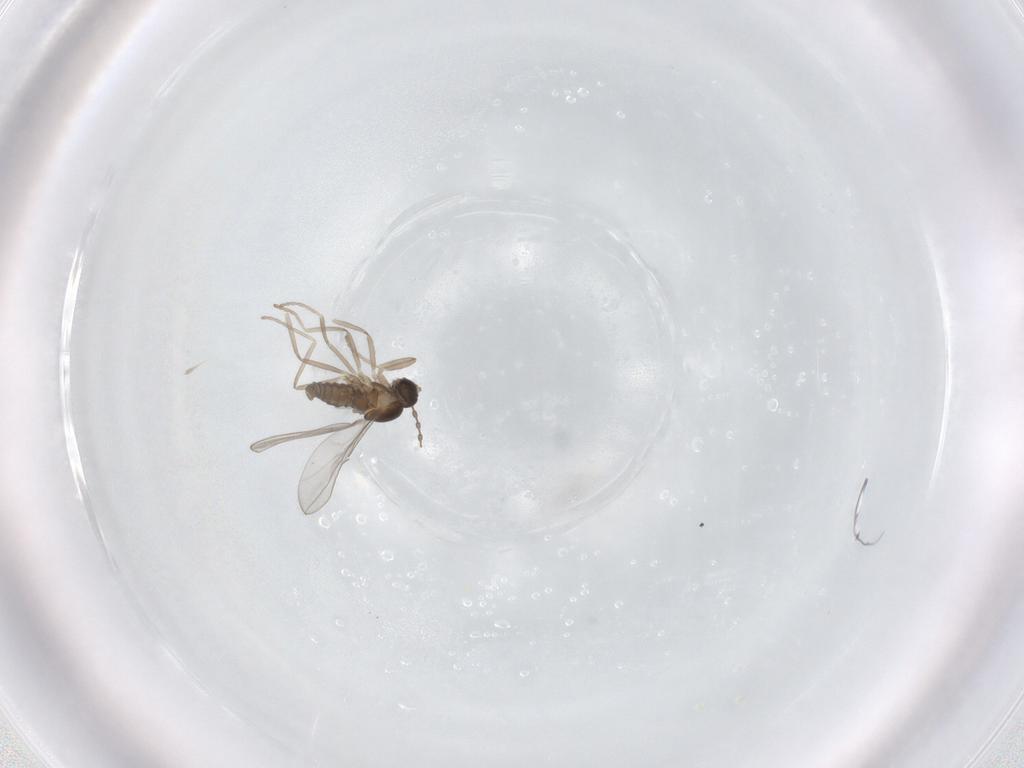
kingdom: Animalia
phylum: Arthropoda
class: Insecta
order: Diptera
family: Cecidomyiidae
